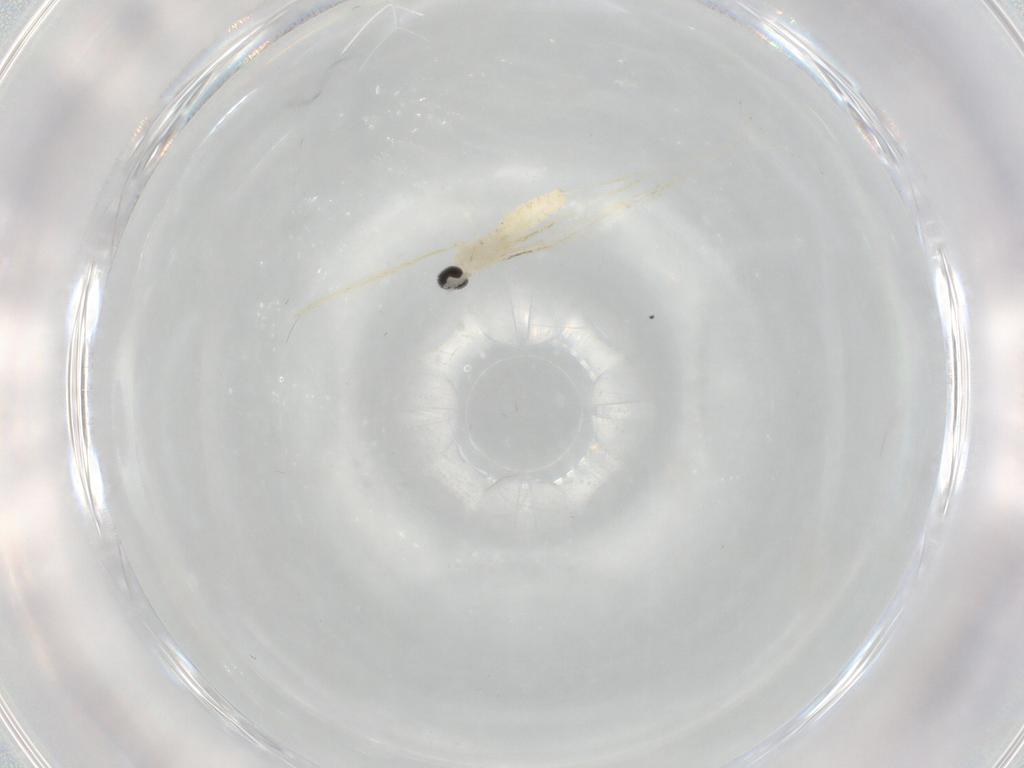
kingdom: Animalia
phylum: Arthropoda
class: Insecta
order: Diptera
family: Cecidomyiidae
